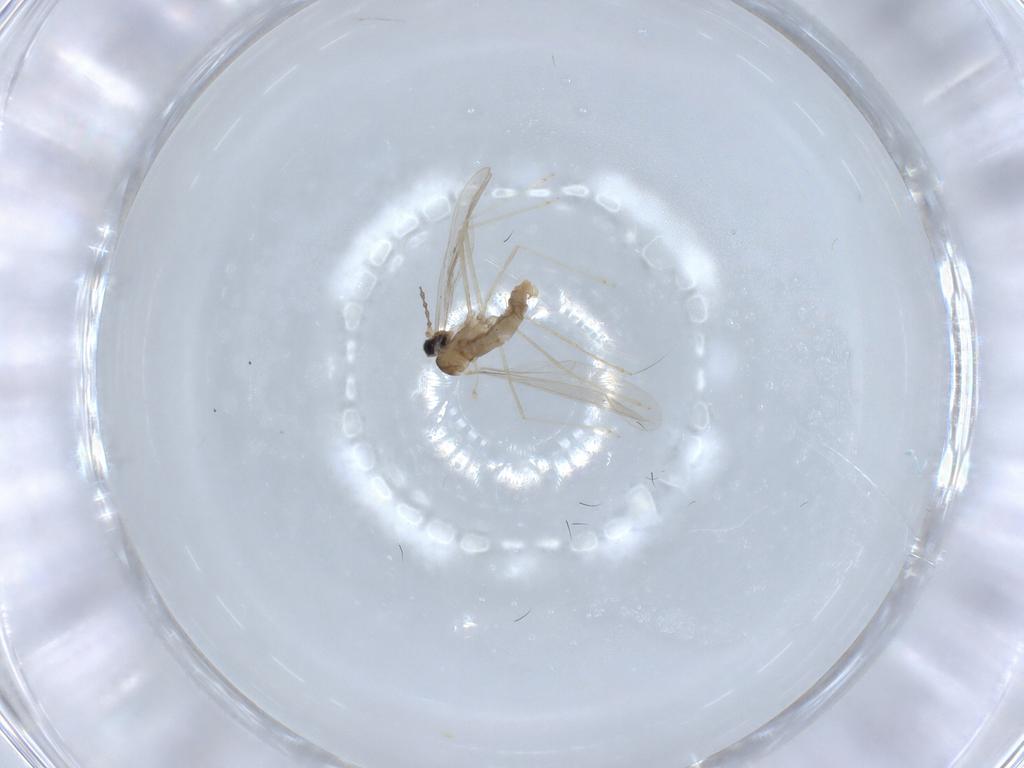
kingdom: Animalia
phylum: Arthropoda
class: Insecta
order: Diptera
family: Cecidomyiidae
